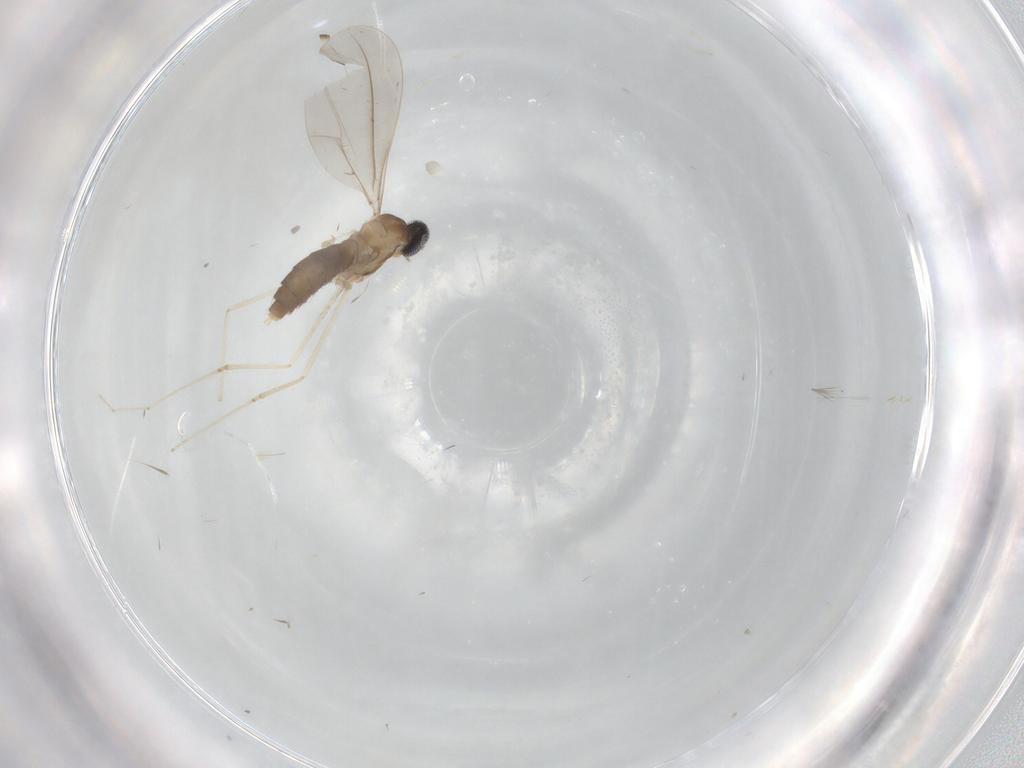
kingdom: Animalia
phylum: Arthropoda
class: Insecta
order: Diptera
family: Cecidomyiidae
